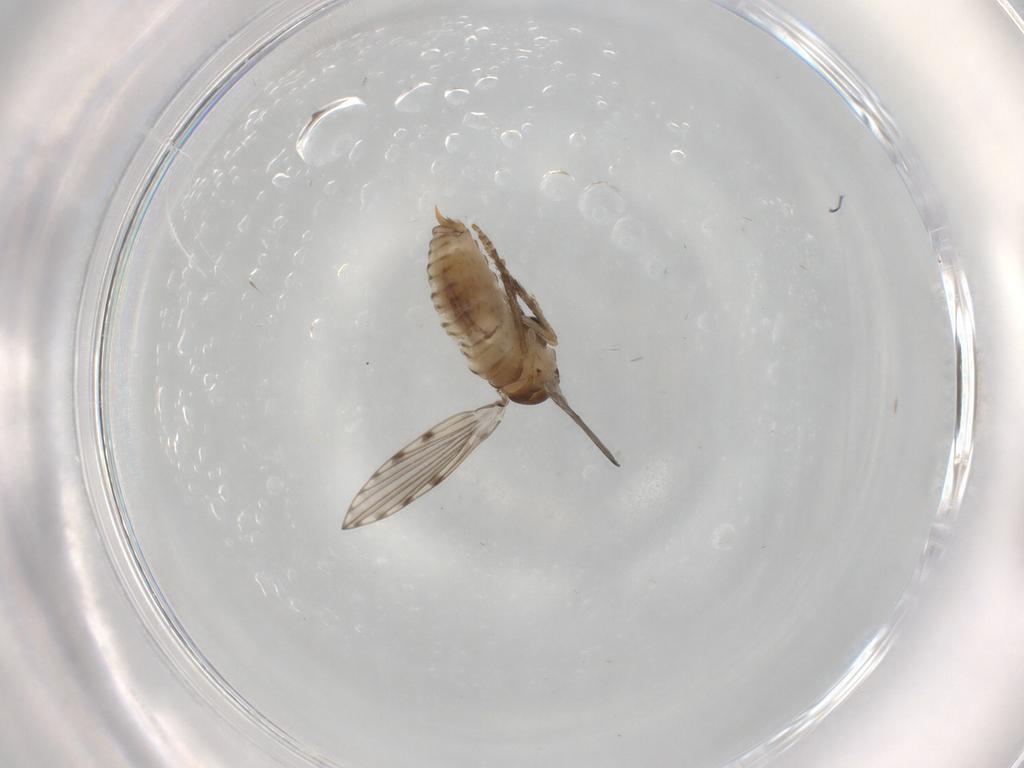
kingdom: Animalia
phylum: Arthropoda
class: Insecta
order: Diptera
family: Psychodidae
